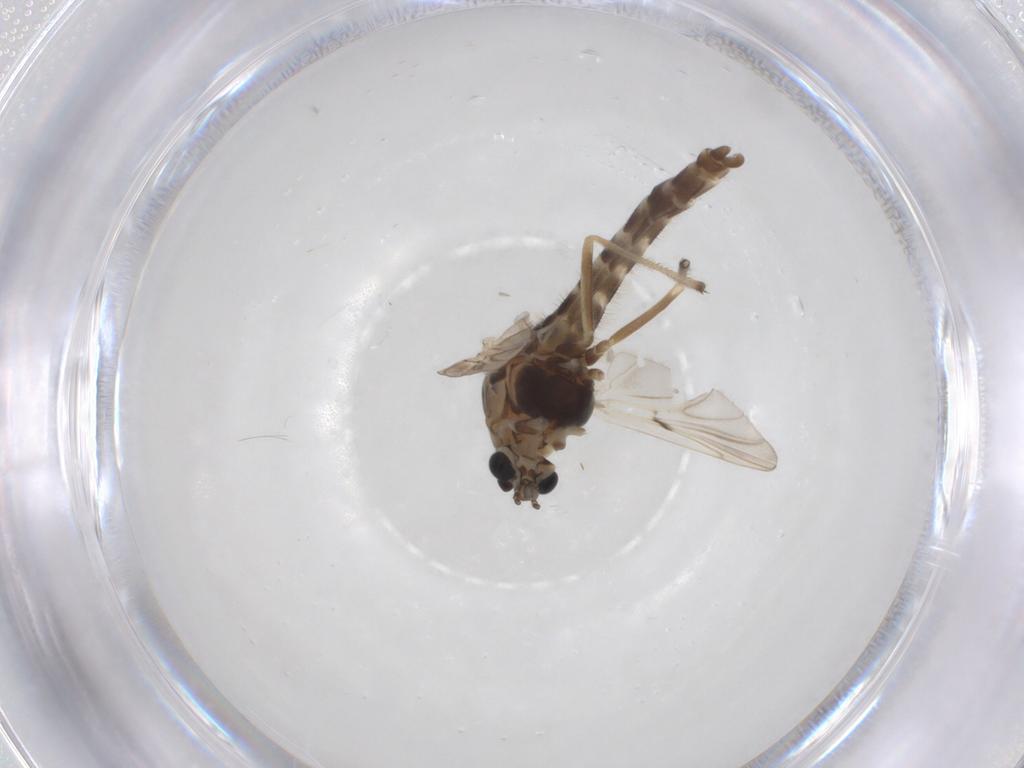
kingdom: Animalia
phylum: Arthropoda
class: Insecta
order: Diptera
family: Chironomidae
